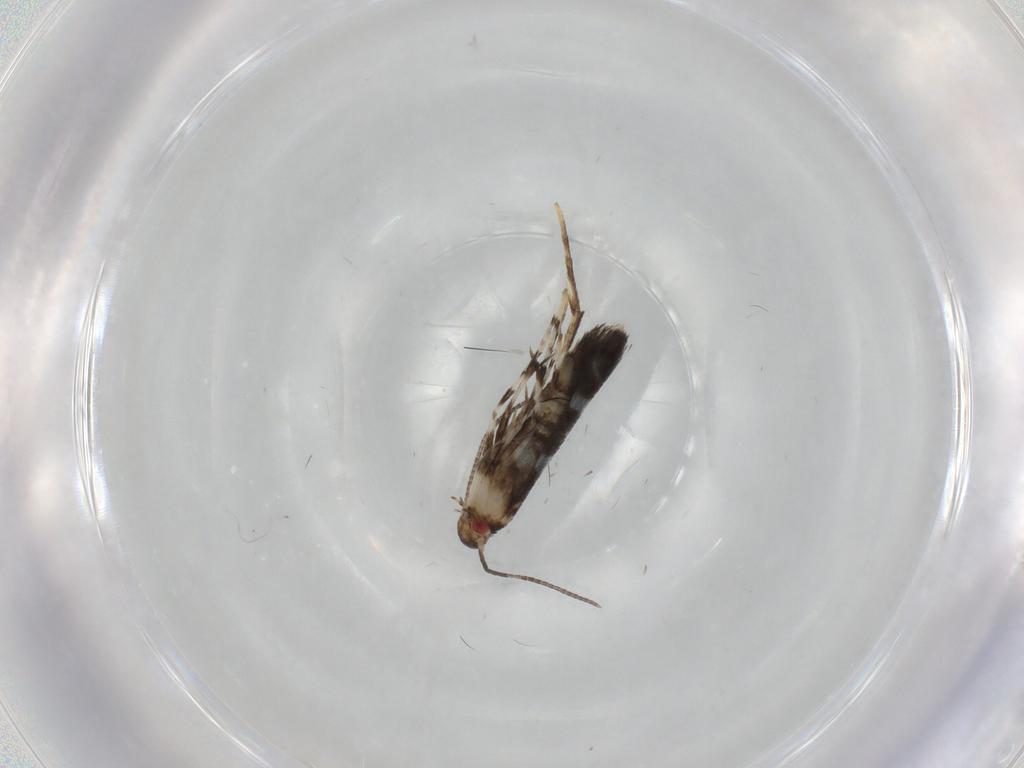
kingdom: Animalia
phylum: Arthropoda
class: Insecta
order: Lepidoptera
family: Gracillariidae
